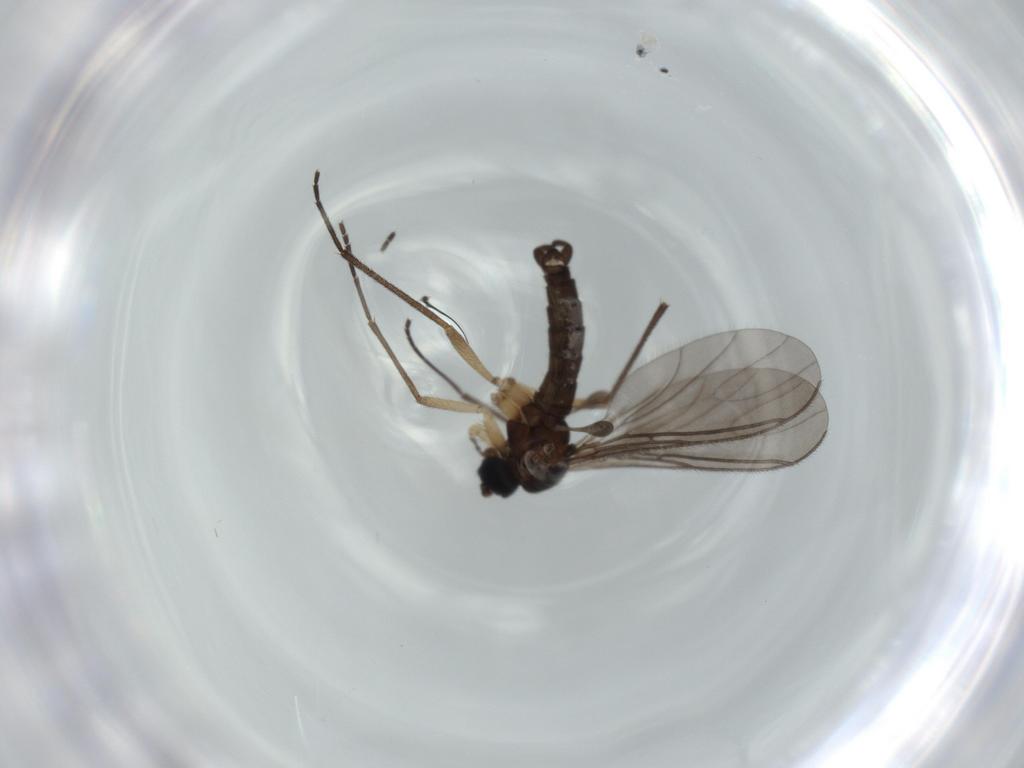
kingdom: Animalia
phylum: Arthropoda
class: Insecta
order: Diptera
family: Sciaridae
